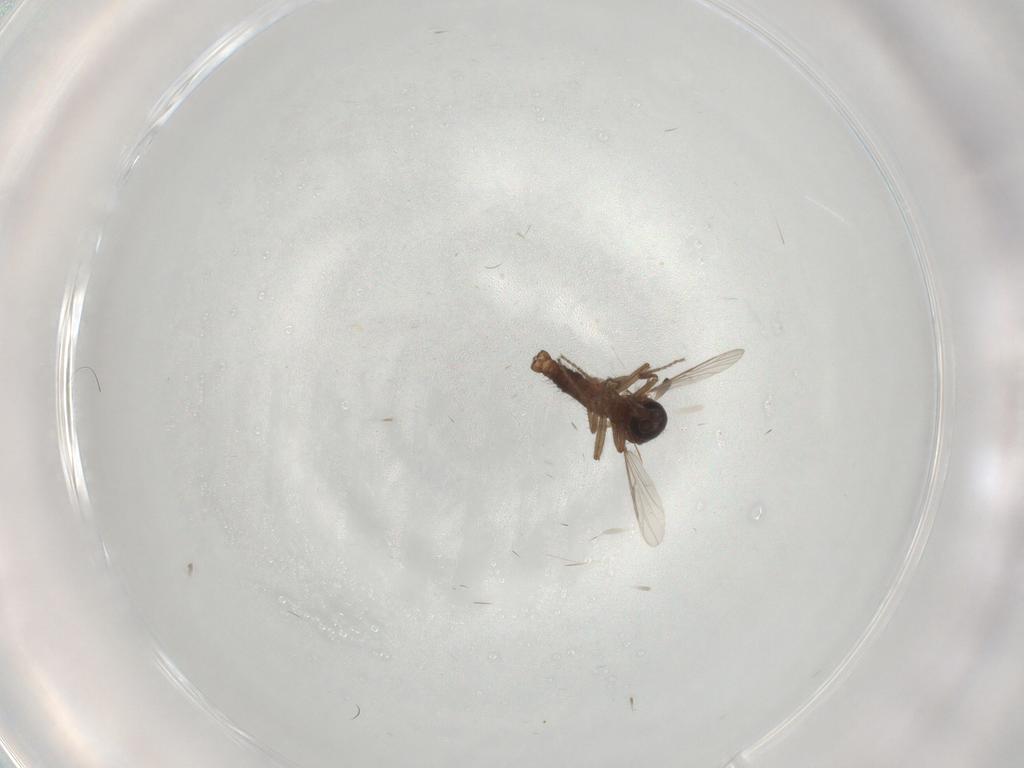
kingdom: Animalia
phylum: Arthropoda
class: Insecta
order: Diptera
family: Ceratopogonidae
